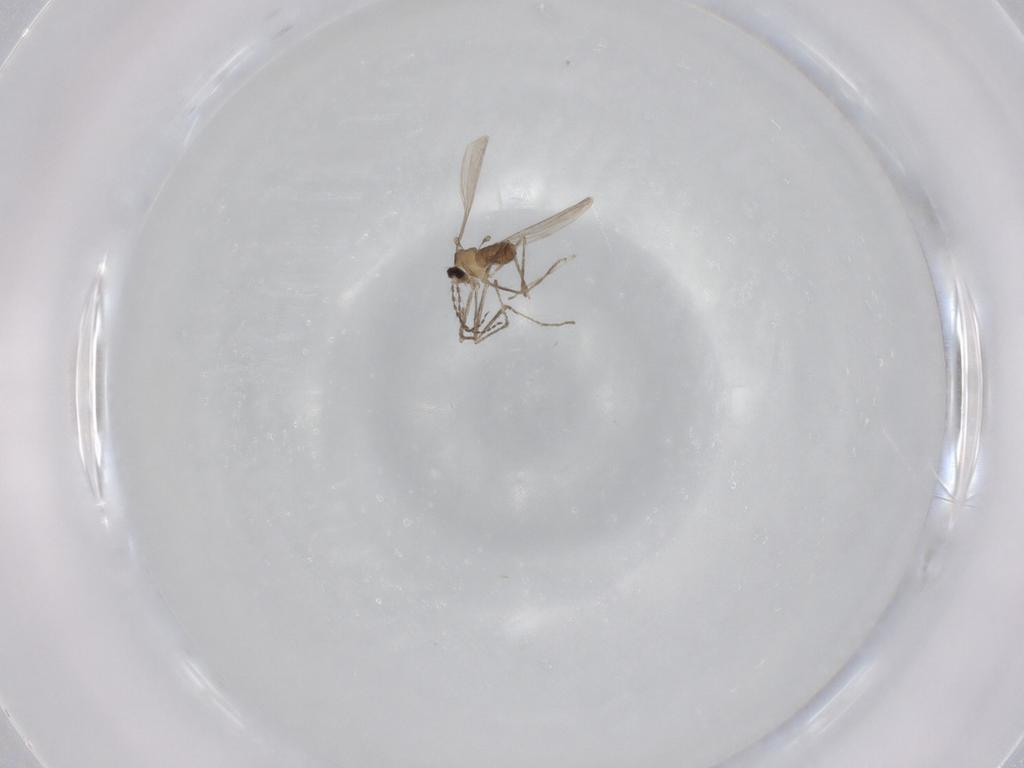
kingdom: Animalia
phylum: Arthropoda
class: Insecta
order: Diptera
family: Cecidomyiidae
